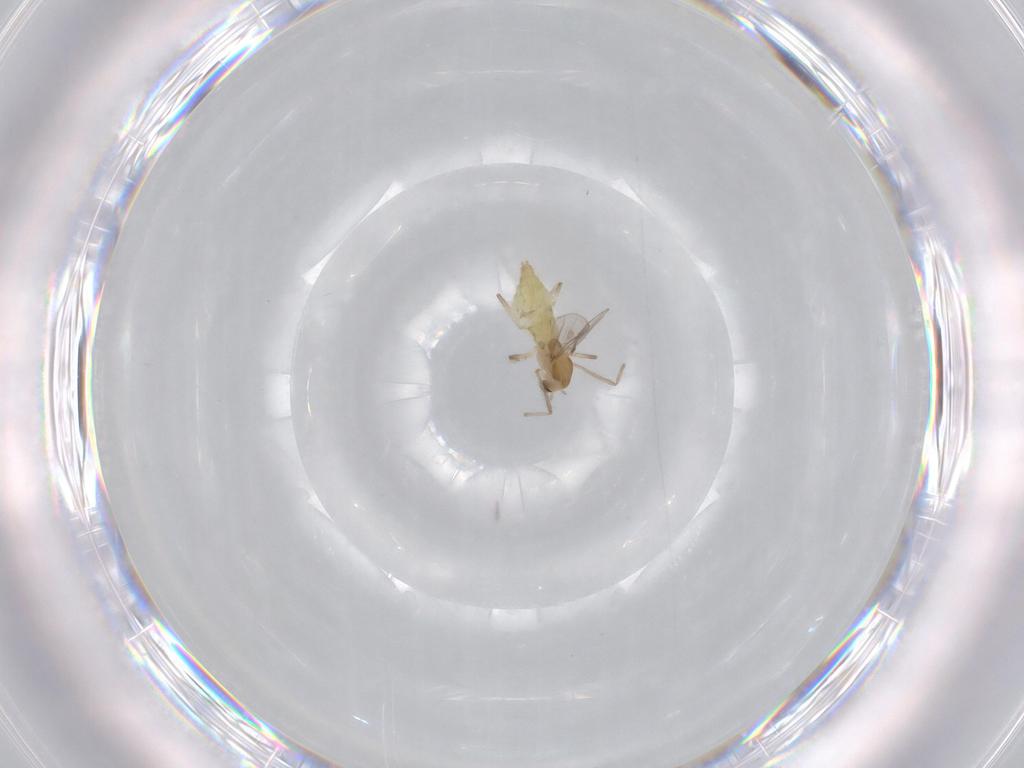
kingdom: Animalia
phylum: Arthropoda
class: Insecta
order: Diptera
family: Chironomidae
